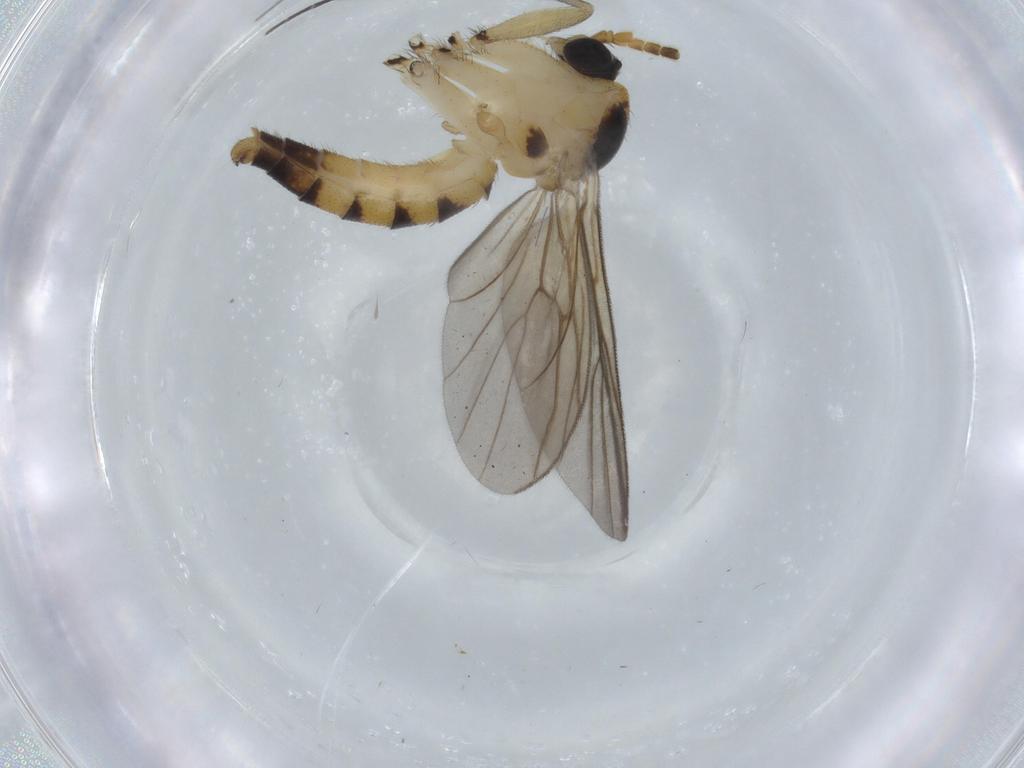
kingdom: Animalia
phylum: Arthropoda
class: Insecta
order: Diptera
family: Chironomidae
